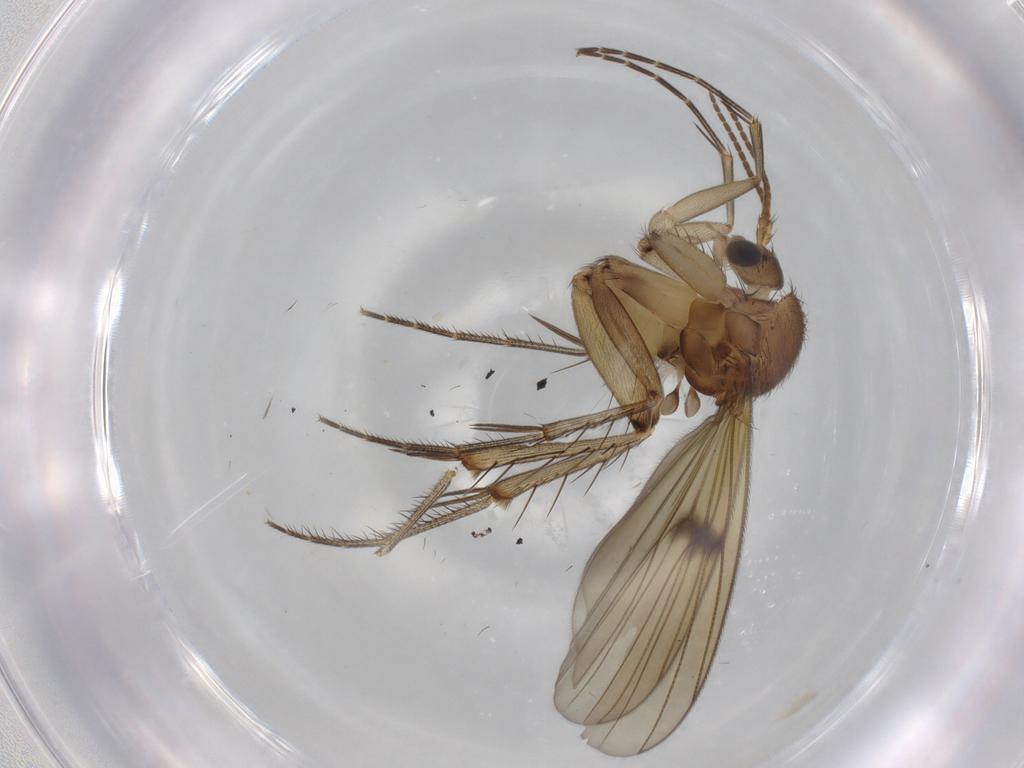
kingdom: Animalia
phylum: Arthropoda
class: Insecta
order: Diptera
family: Mycetophilidae
